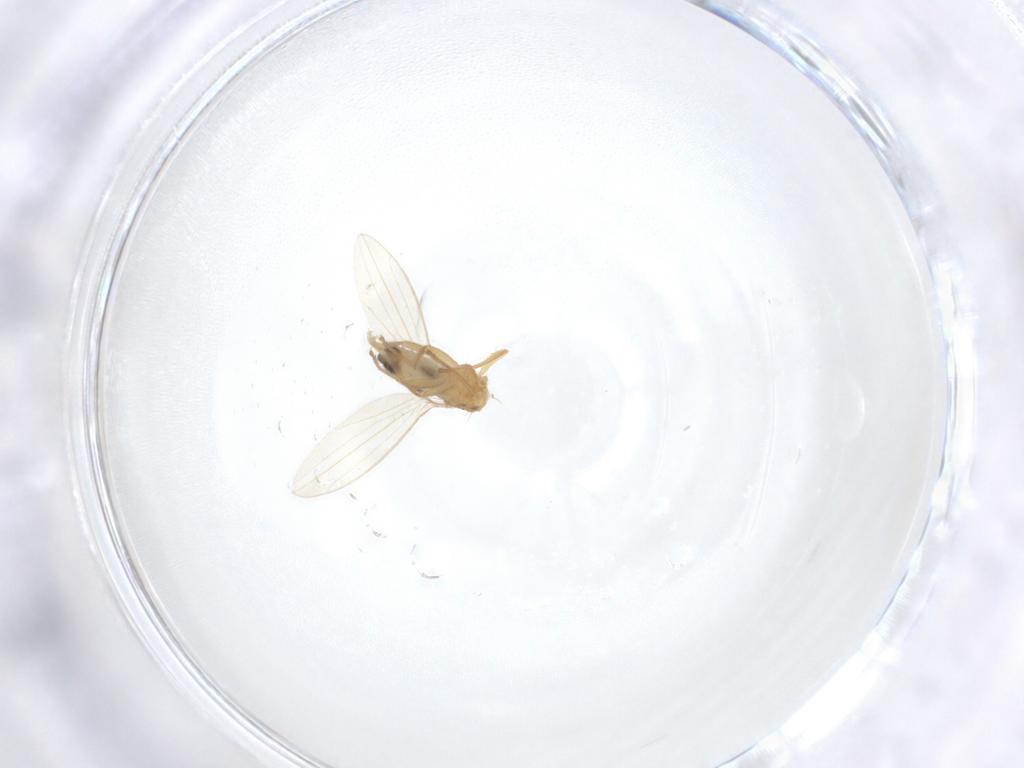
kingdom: Animalia
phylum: Arthropoda
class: Insecta
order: Diptera
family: Periscelididae
